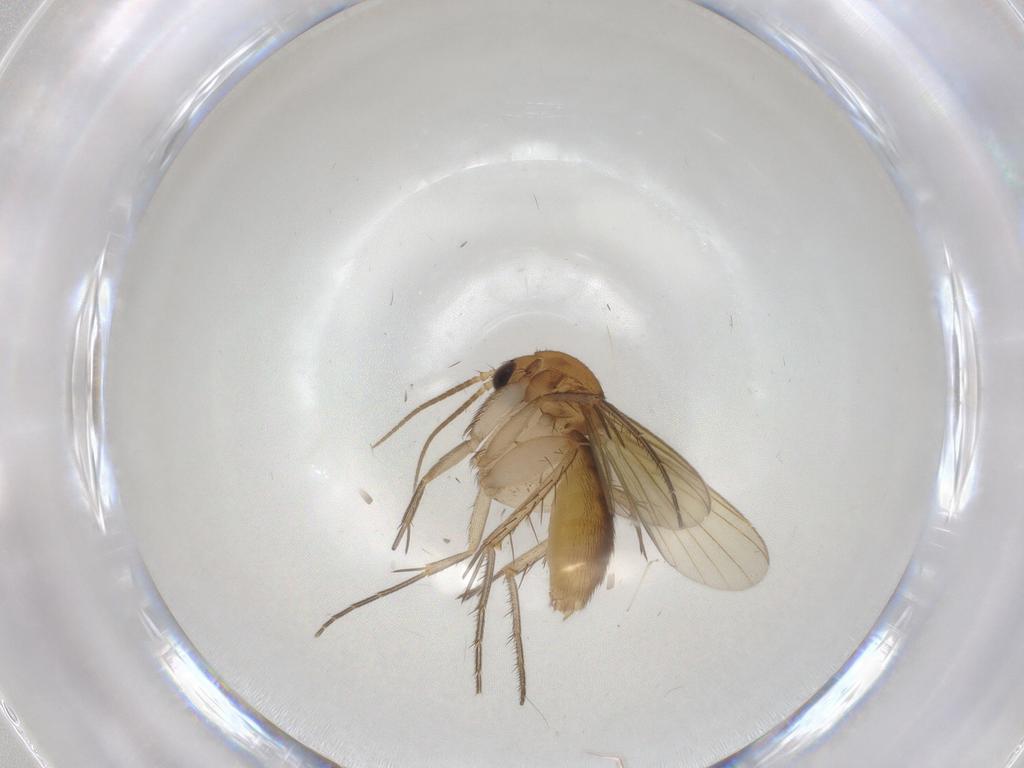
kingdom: Animalia
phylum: Arthropoda
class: Insecta
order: Diptera
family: Mycetophilidae
